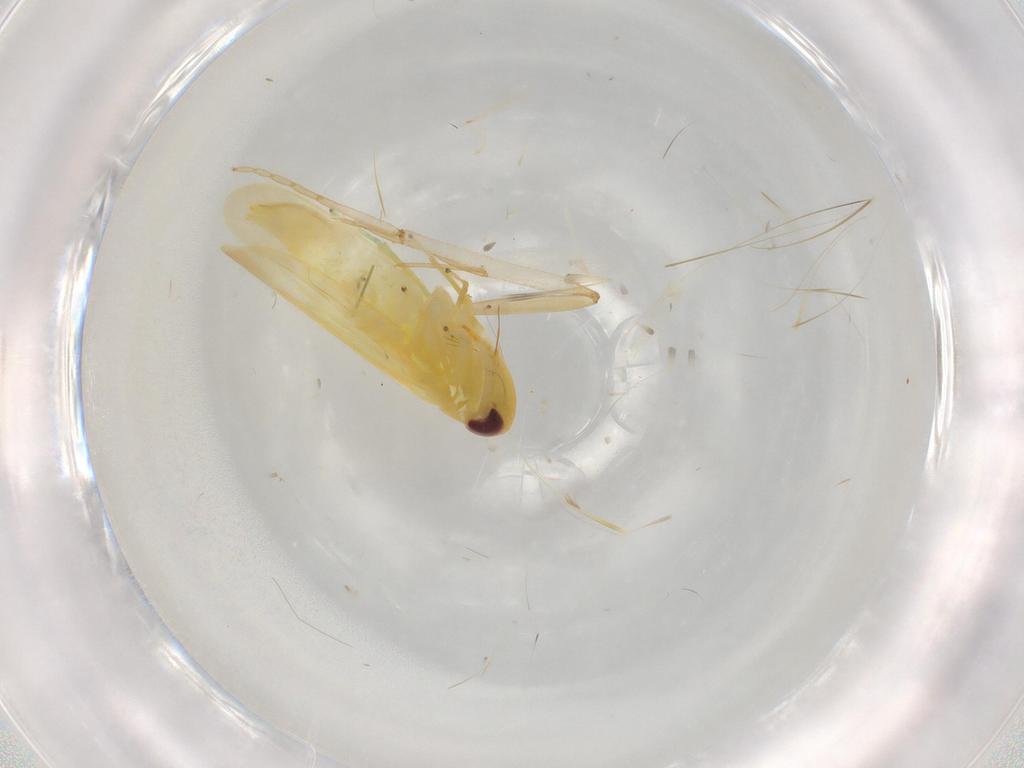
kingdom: Animalia
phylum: Arthropoda
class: Insecta
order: Hemiptera
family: Cicadellidae
